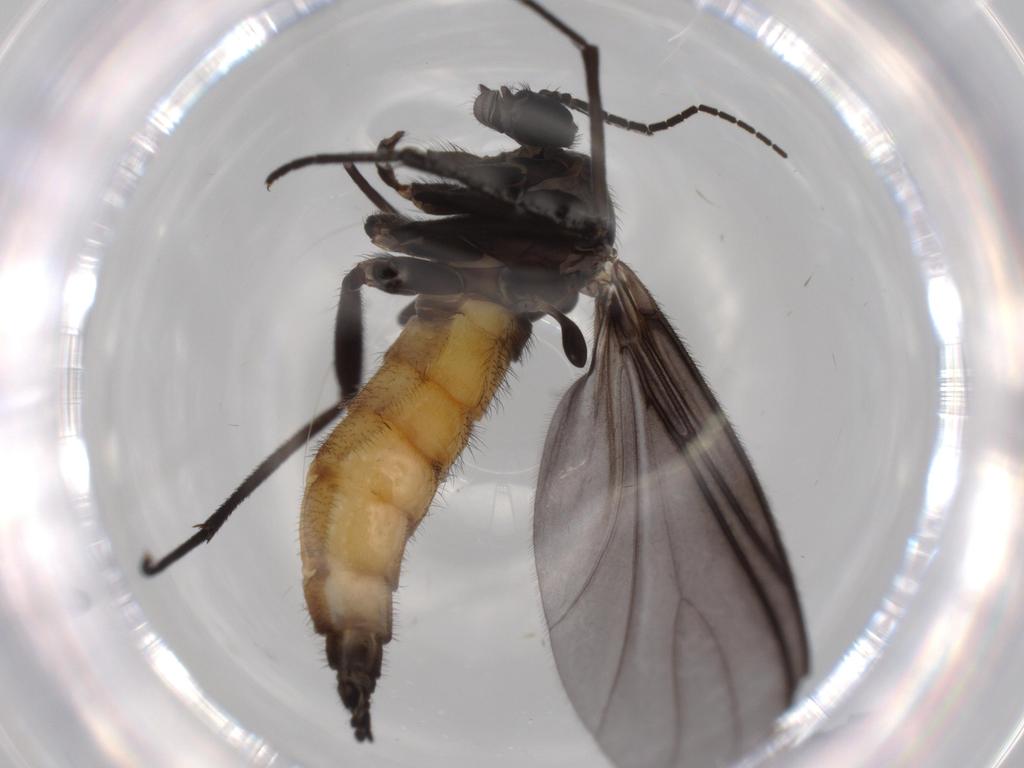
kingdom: Animalia
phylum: Arthropoda
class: Insecta
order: Diptera
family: Sciaridae
